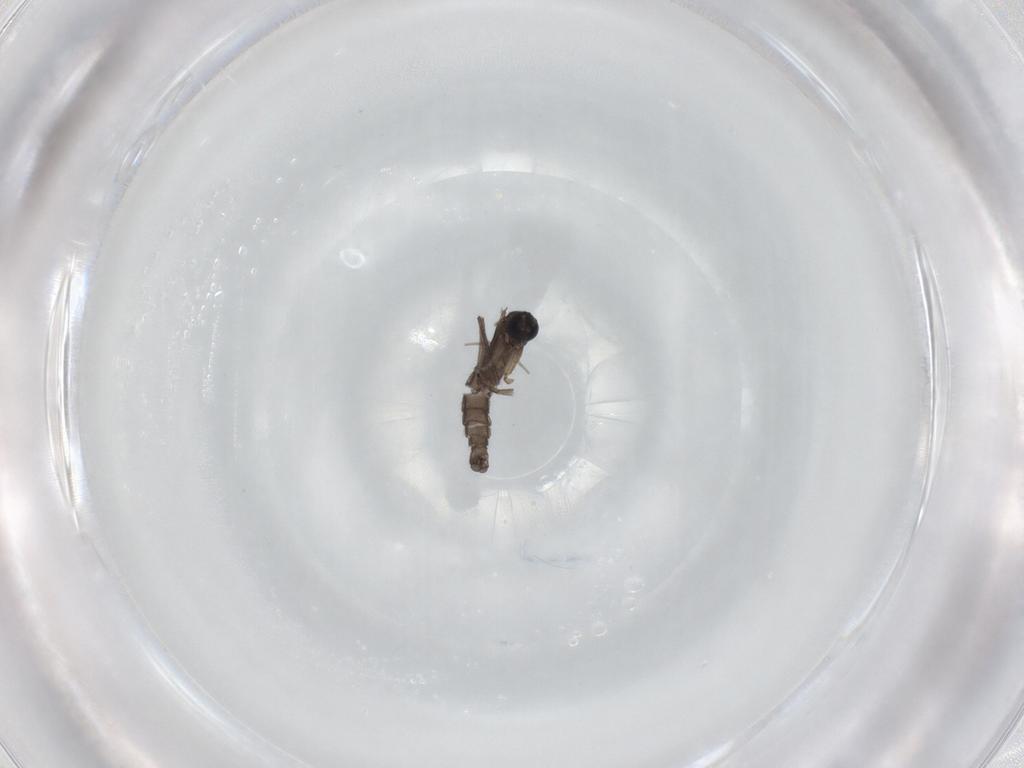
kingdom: Animalia
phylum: Arthropoda
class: Insecta
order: Diptera
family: Sciaridae
